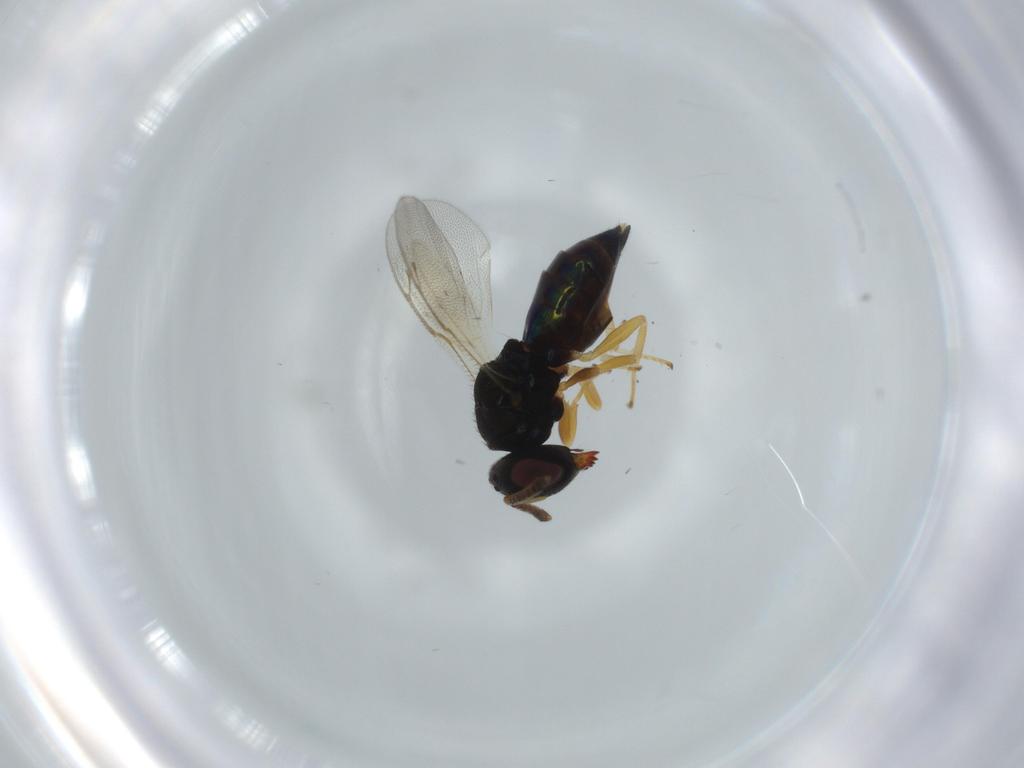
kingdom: Animalia
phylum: Arthropoda
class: Insecta
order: Hymenoptera
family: Pteromalidae
